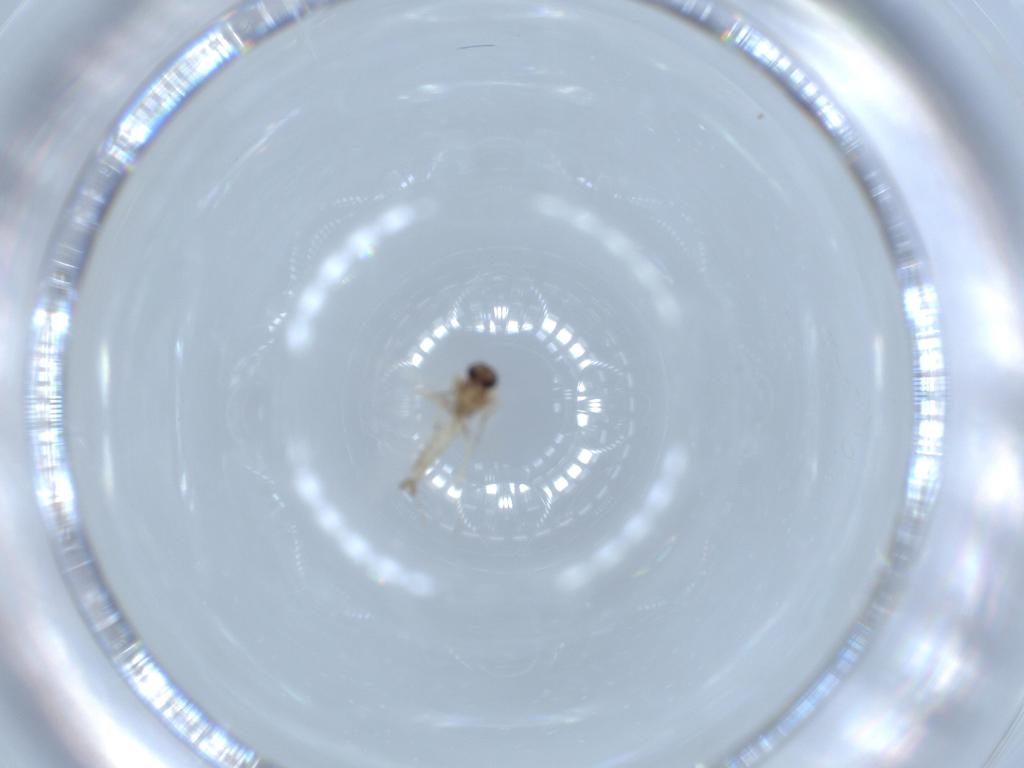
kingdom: Animalia
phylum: Arthropoda
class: Insecta
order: Diptera
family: Ceratopogonidae
